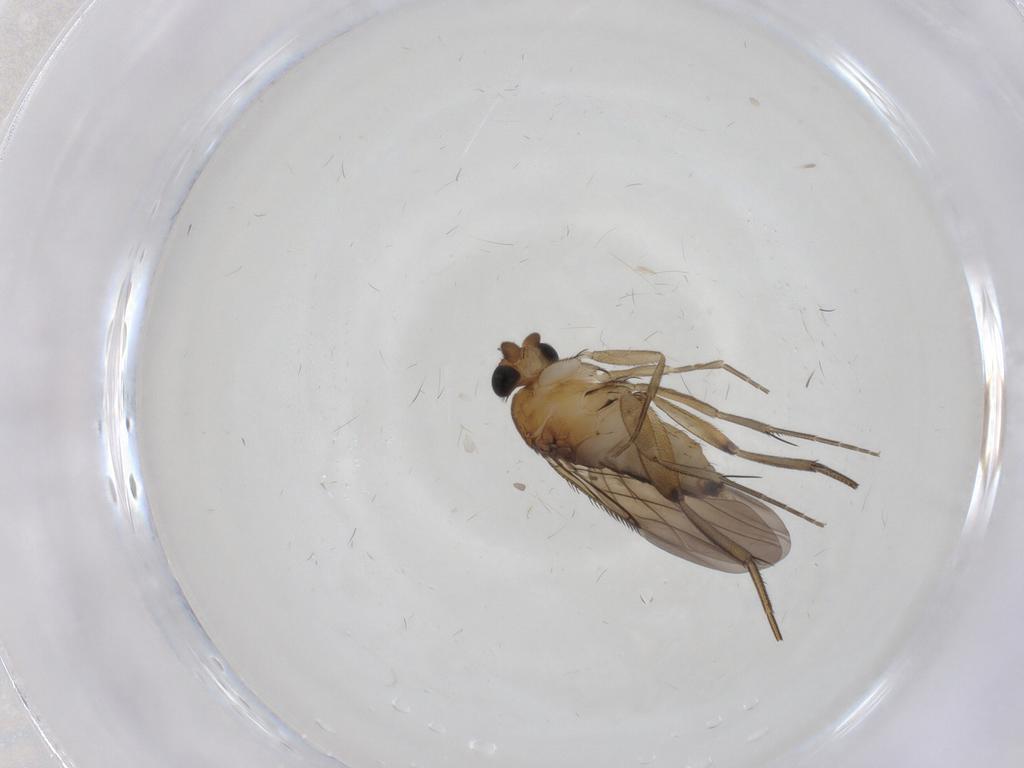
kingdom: Animalia
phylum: Arthropoda
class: Insecta
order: Diptera
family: Phoridae
